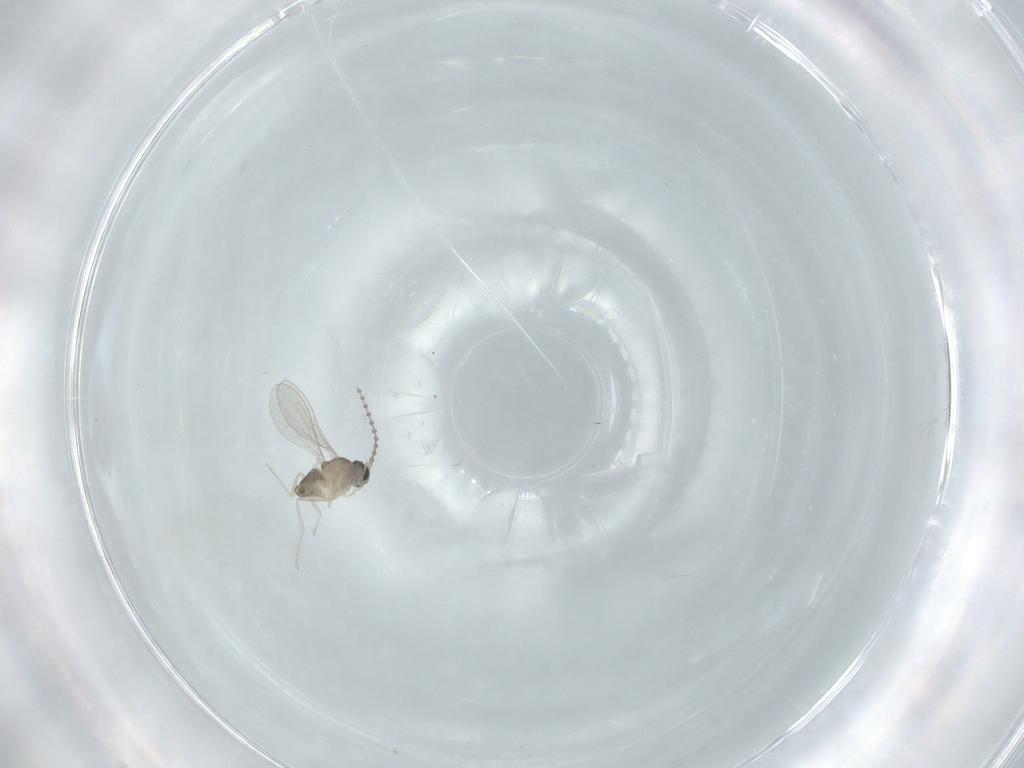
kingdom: Animalia
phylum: Arthropoda
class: Insecta
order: Diptera
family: Cecidomyiidae
